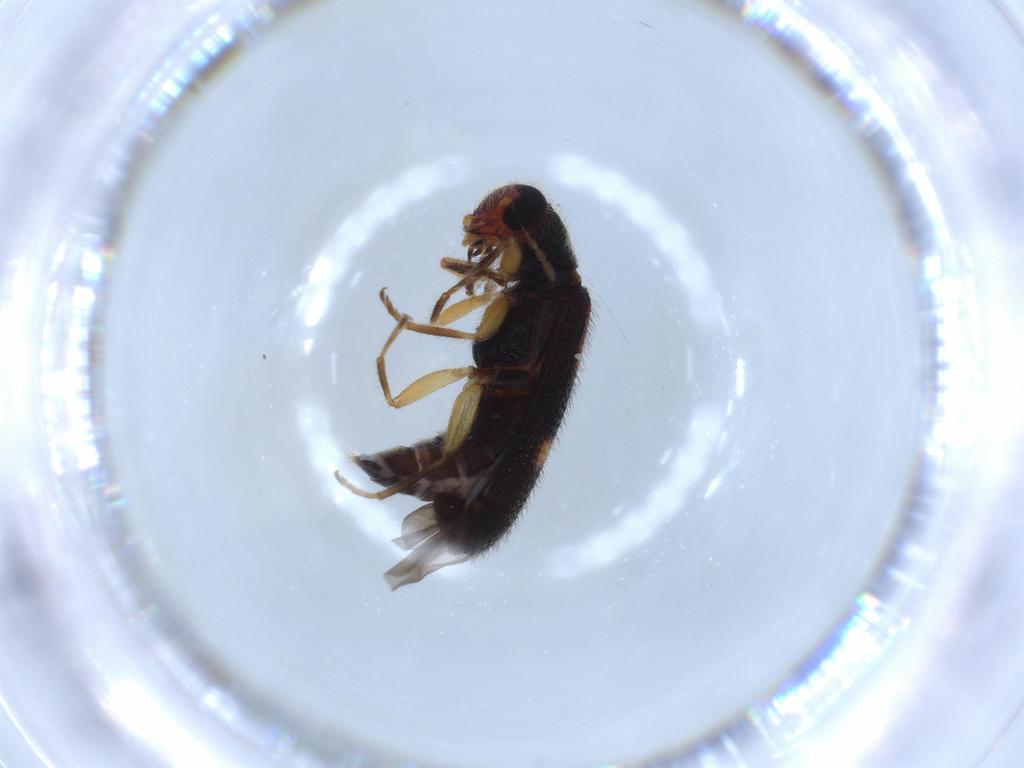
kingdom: Animalia
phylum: Arthropoda
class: Insecta
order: Coleoptera
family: Cleridae
